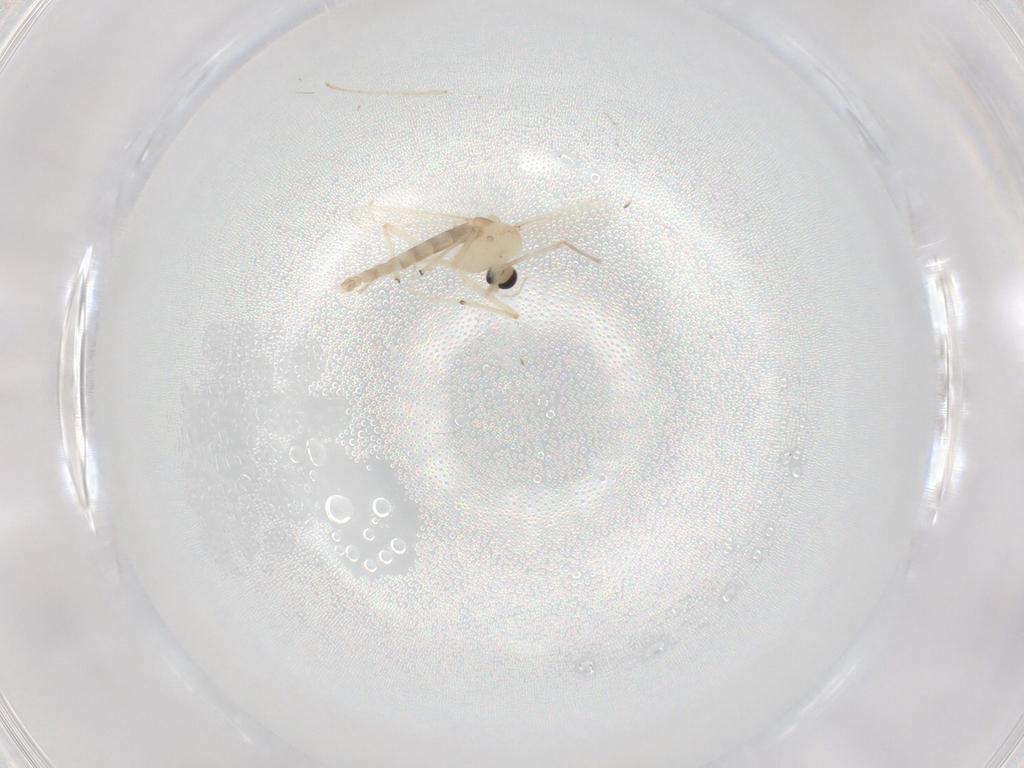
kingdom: Animalia
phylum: Arthropoda
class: Insecta
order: Diptera
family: Chironomidae
